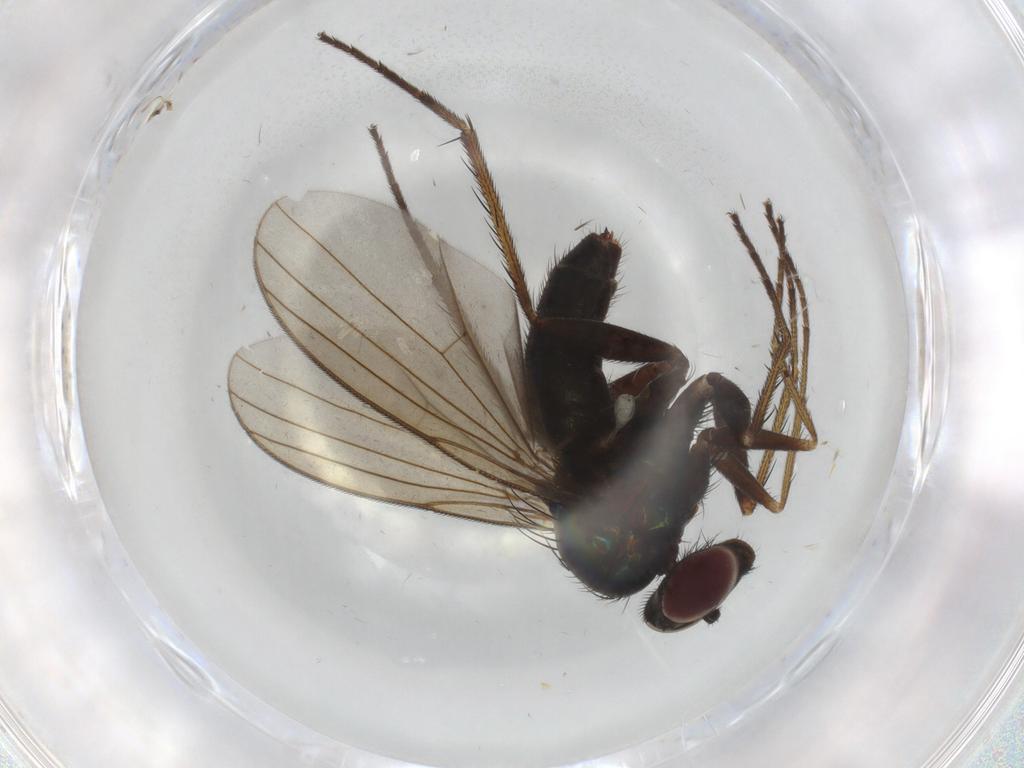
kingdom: Animalia
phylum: Arthropoda
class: Insecta
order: Diptera
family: Cecidomyiidae
